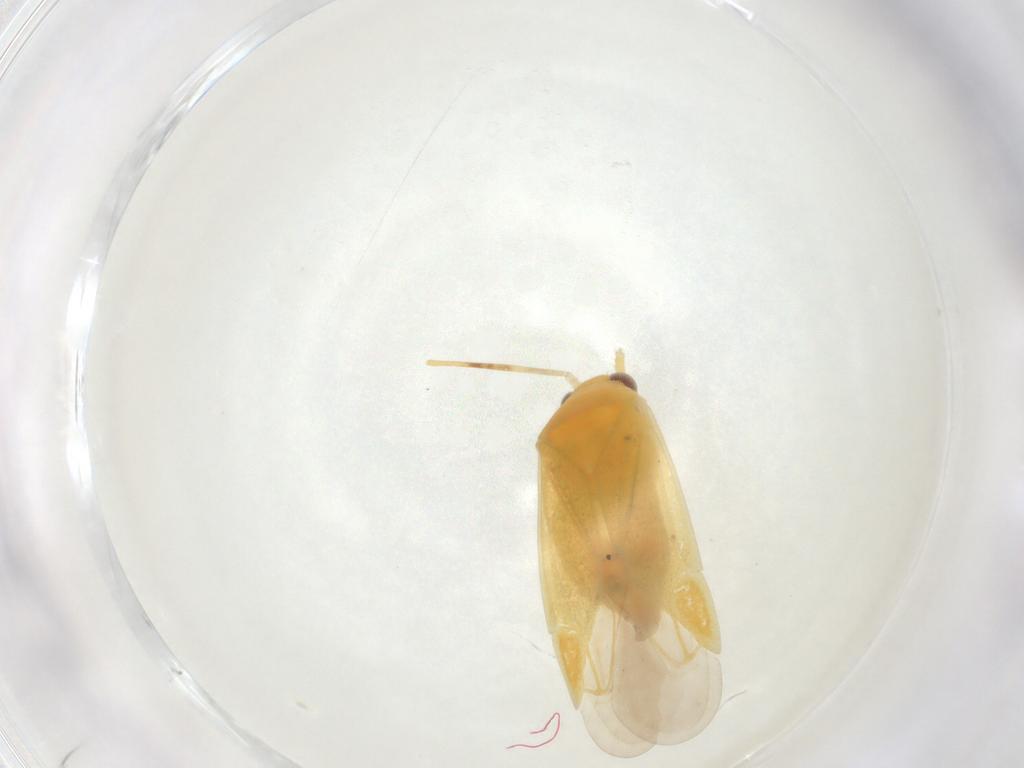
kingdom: Animalia
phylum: Arthropoda
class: Insecta
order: Hemiptera
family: Miridae
